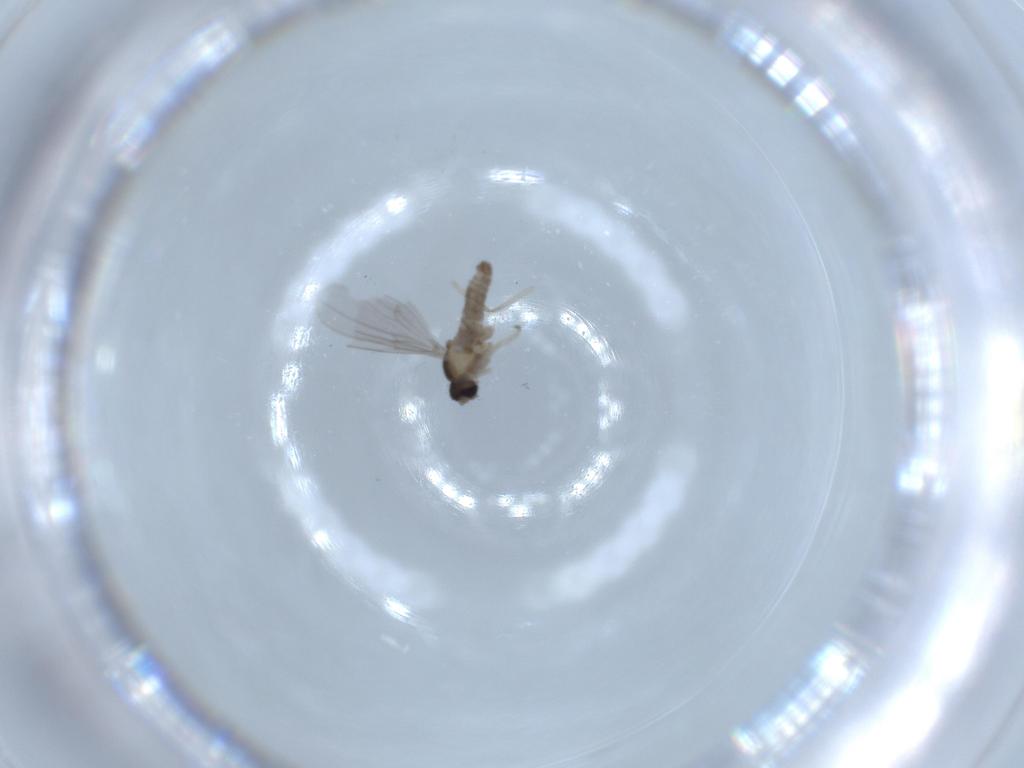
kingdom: Animalia
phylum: Arthropoda
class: Insecta
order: Diptera
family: Cecidomyiidae
